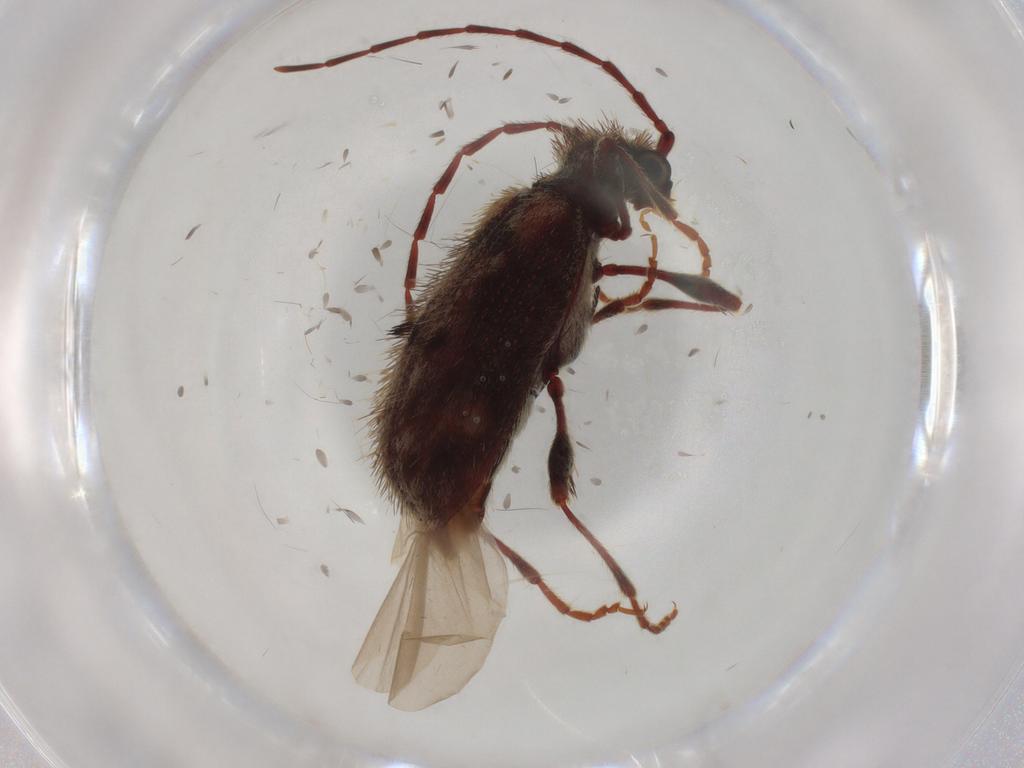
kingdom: Animalia
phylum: Arthropoda
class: Insecta
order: Coleoptera
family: Ptinidae
